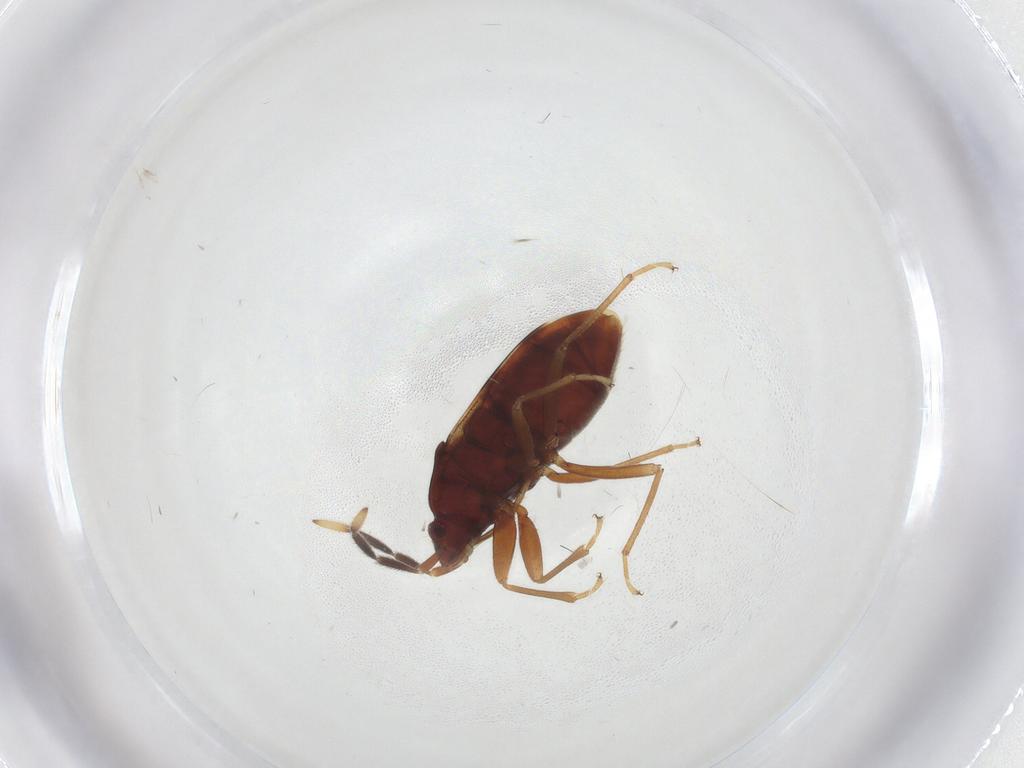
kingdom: Animalia
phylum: Arthropoda
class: Insecta
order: Hemiptera
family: Rhyparochromidae
